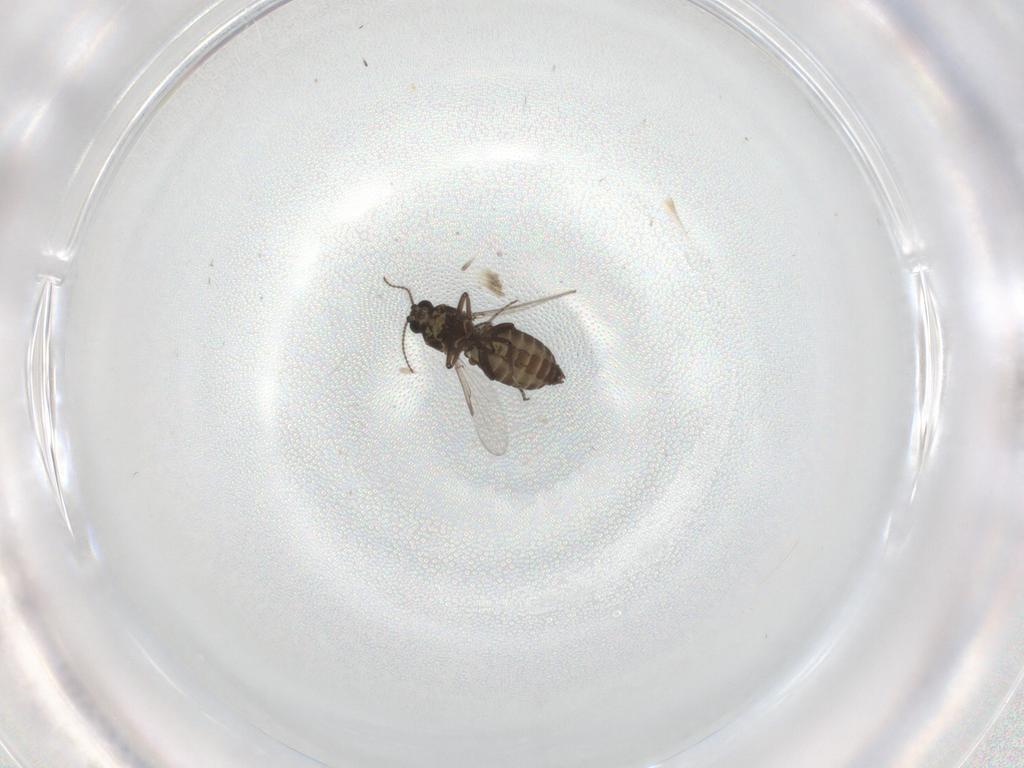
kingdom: Animalia
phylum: Arthropoda
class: Insecta
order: Diptera
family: Ceratopogonidae
